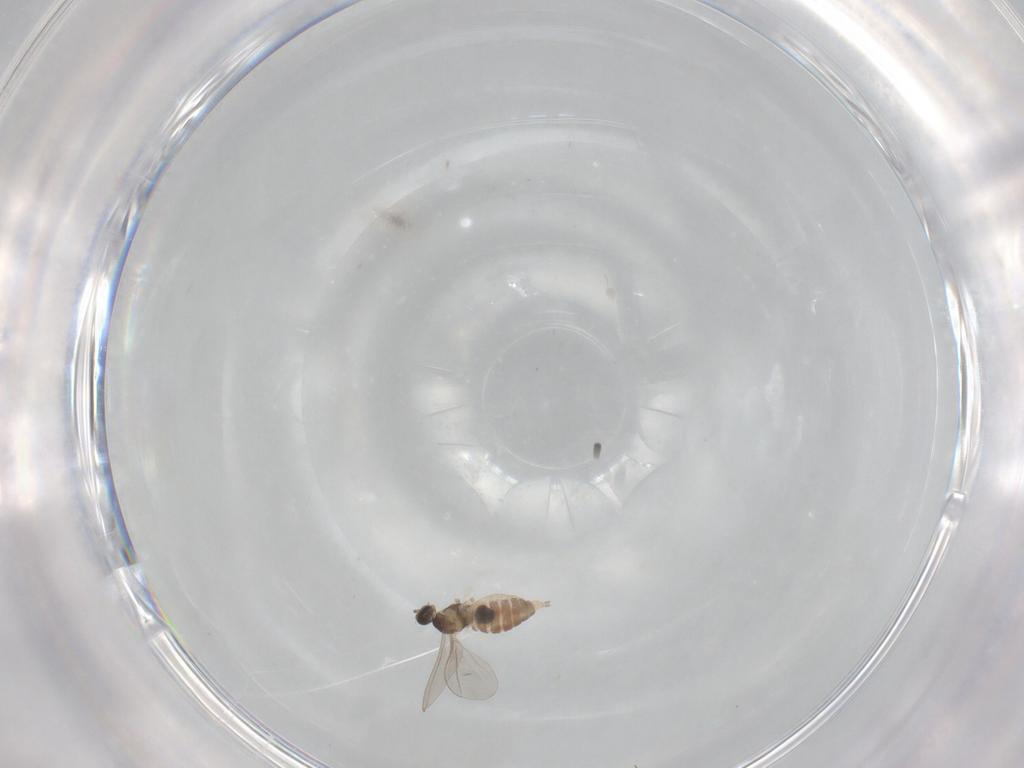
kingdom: Animalia
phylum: Arthropoda
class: Insecta
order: Diptera
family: Cecidomyiidae
